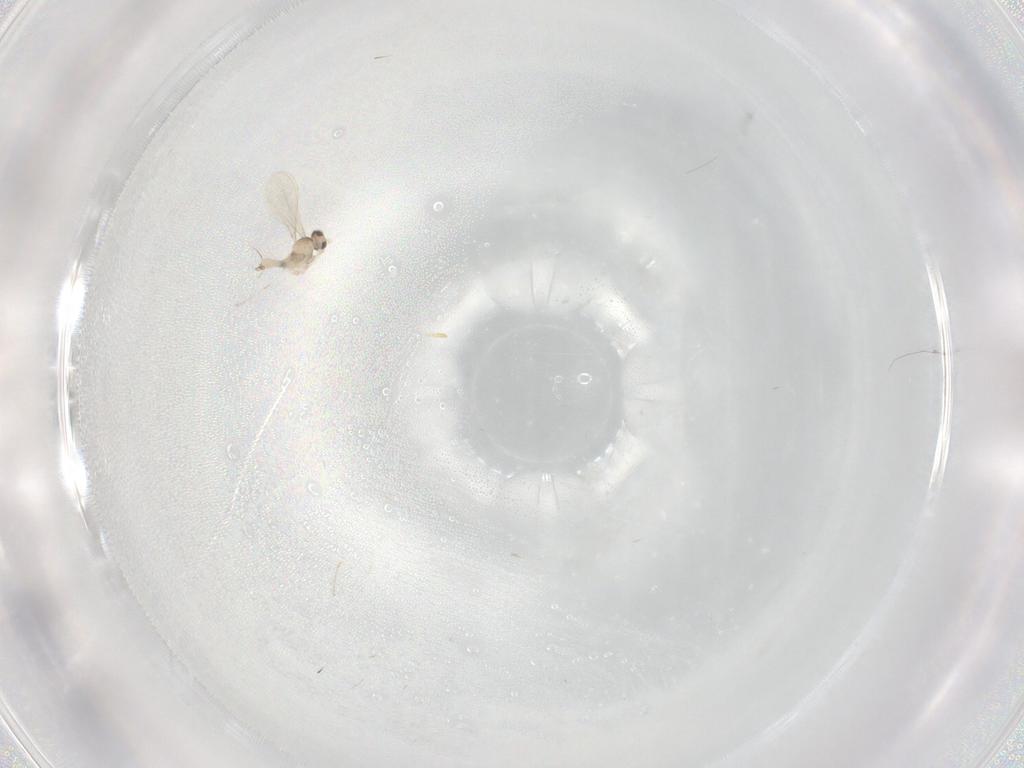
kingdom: Animalia
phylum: Arthropoda
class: Insecta
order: Diptera
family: Cecidomyiidae
